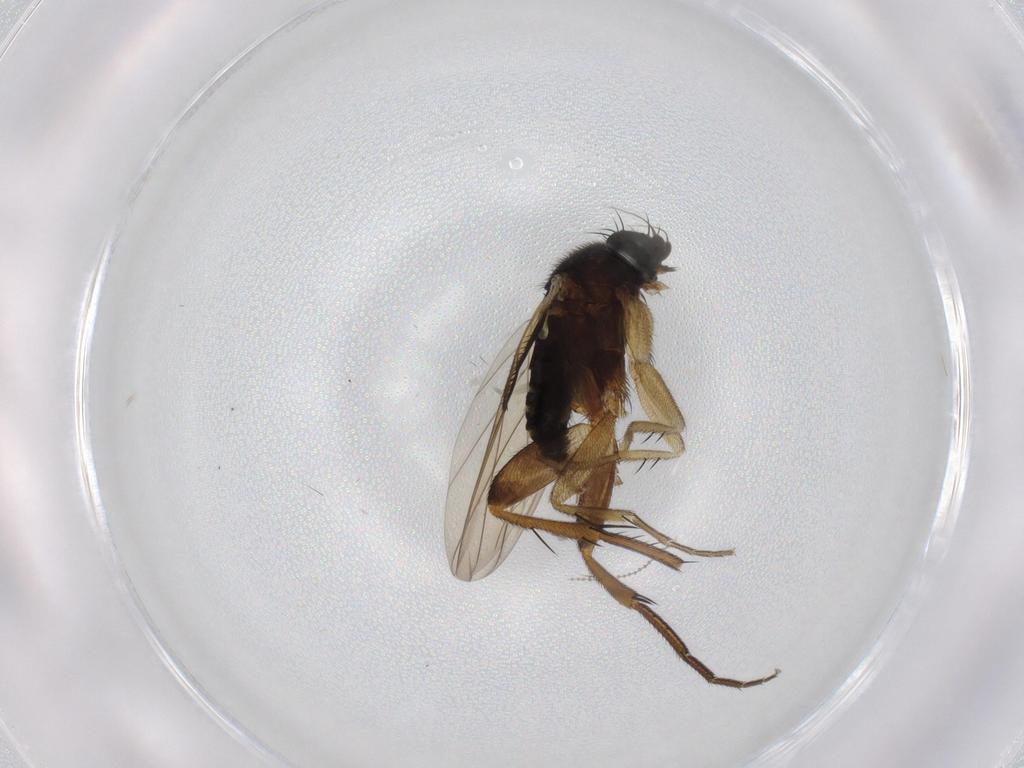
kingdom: Animalia
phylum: Arthropoda
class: Insecta
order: Diptera
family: Phoridae
